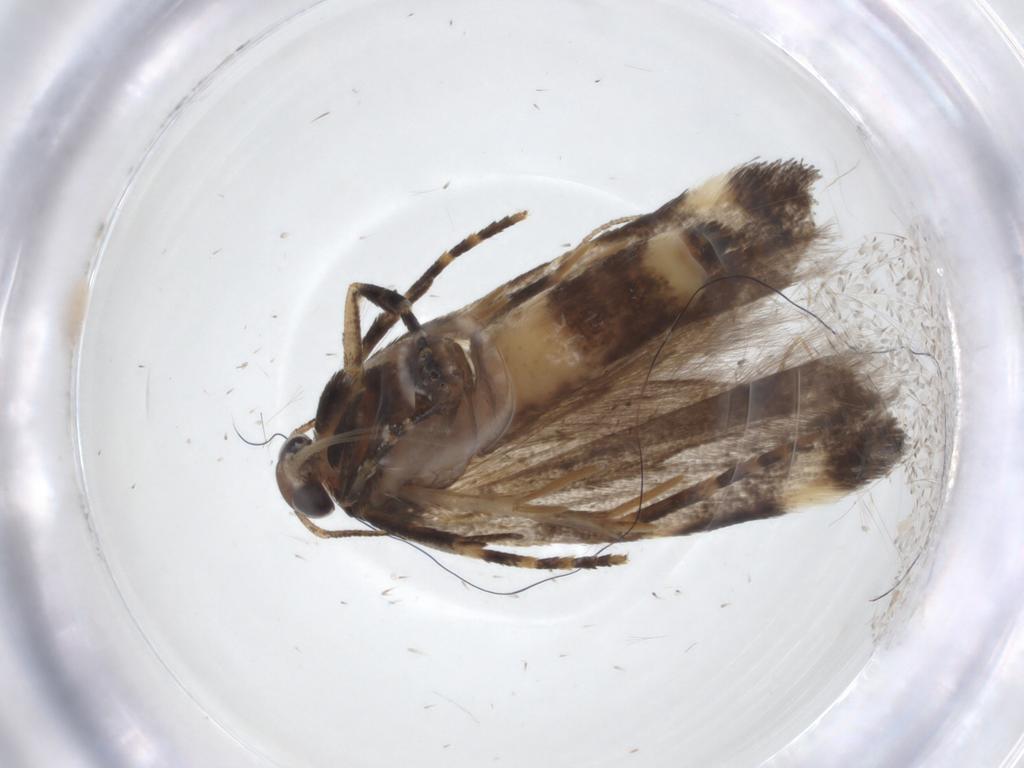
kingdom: Animalia
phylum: Arthropoda
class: Insecta
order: Lepidoptera
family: Gelechiidae
